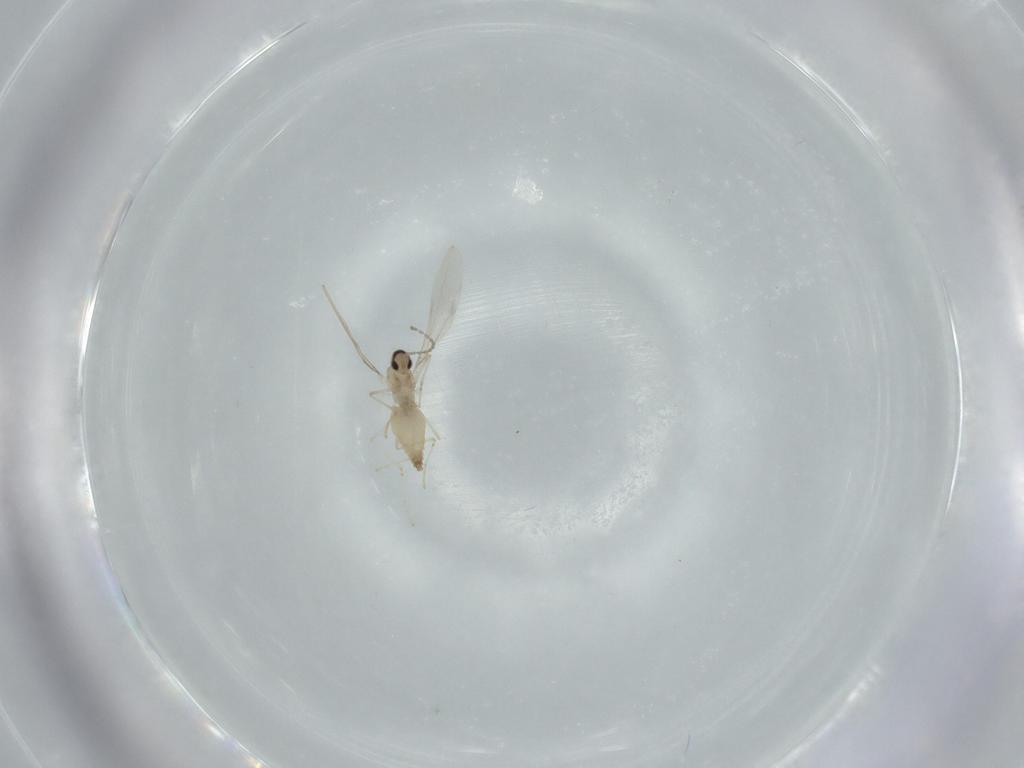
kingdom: Animalia
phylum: Arthropoda
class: Insecta
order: Diptera
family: Cecidomyiidae
